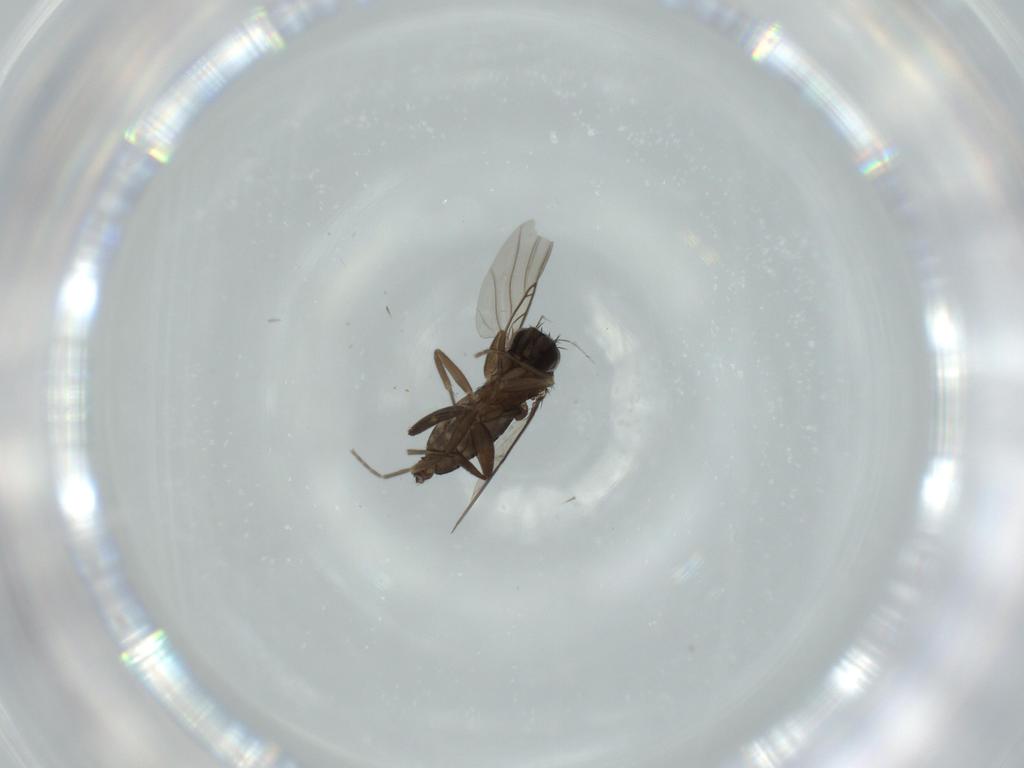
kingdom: Animalia
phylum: Arthropoda
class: Insecta
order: Diptera
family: Phoridae
